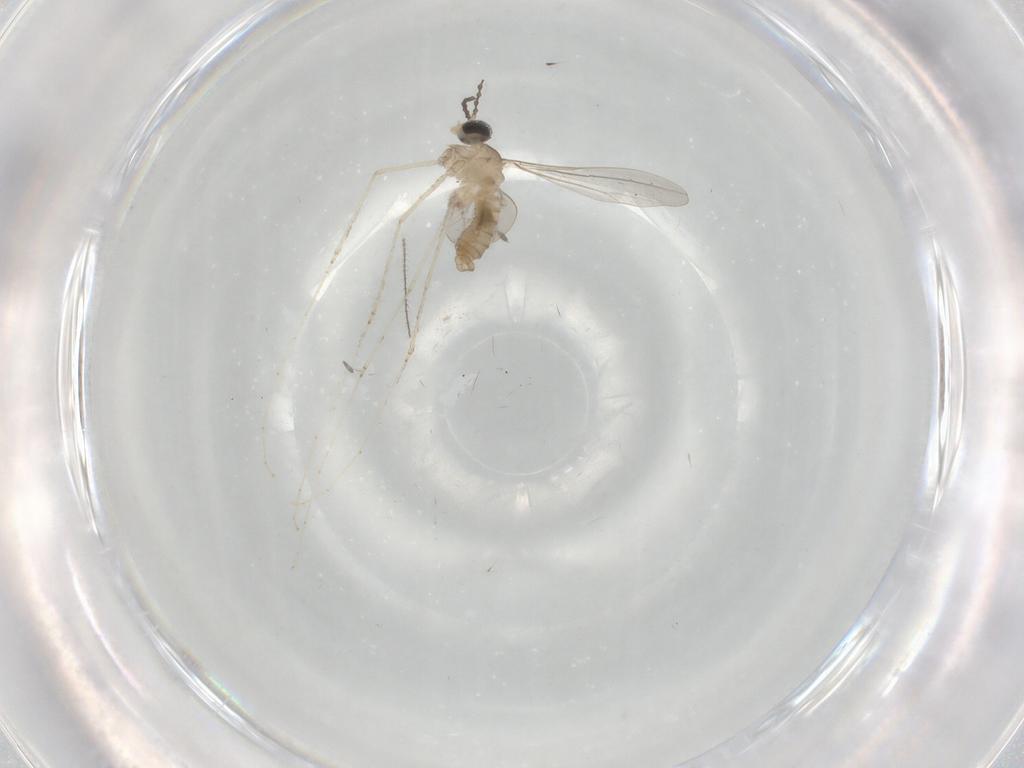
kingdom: Animalia
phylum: Arthropoda
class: Insecta
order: Diptera
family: Cecidomyiidae
